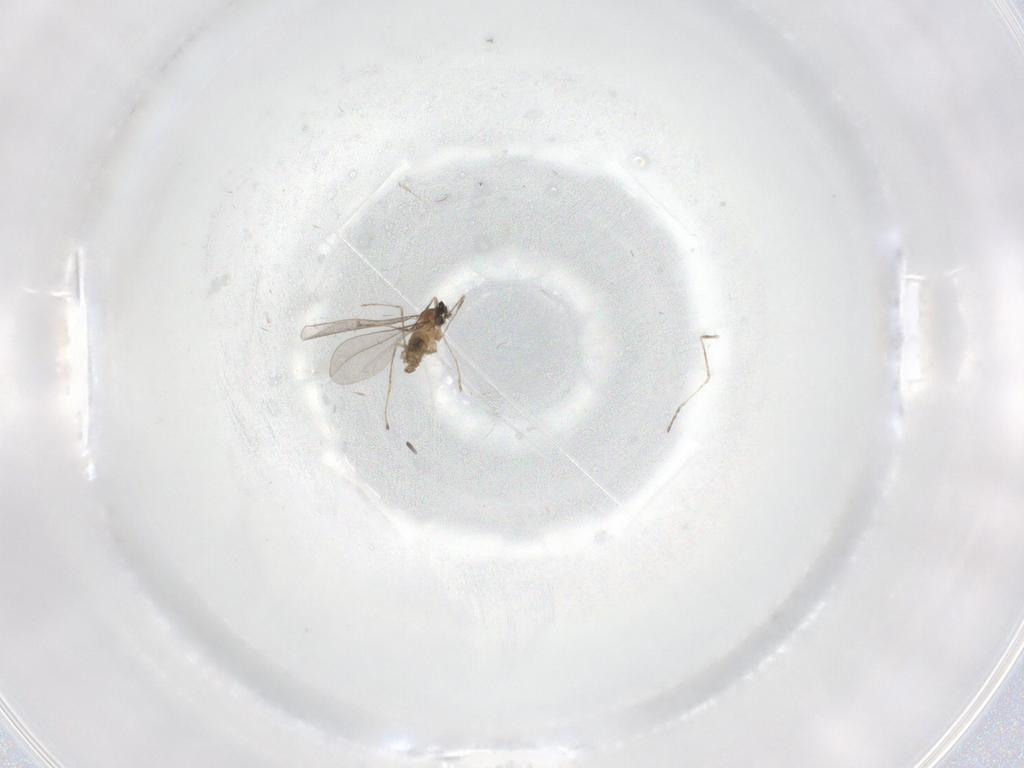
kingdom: Animalia
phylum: Arthropoda
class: Insecta
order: Diptera
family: Cecidomyiidae
